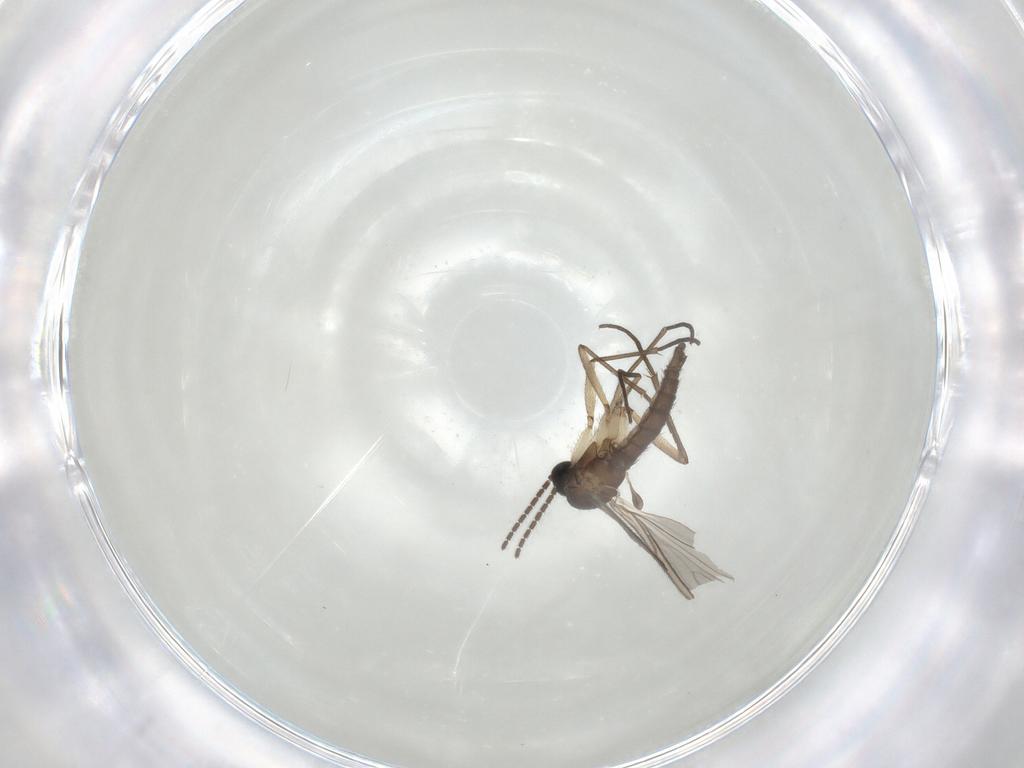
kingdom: Animalia
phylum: Arthropoda
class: Insecta
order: Diptera
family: Sciaridae
